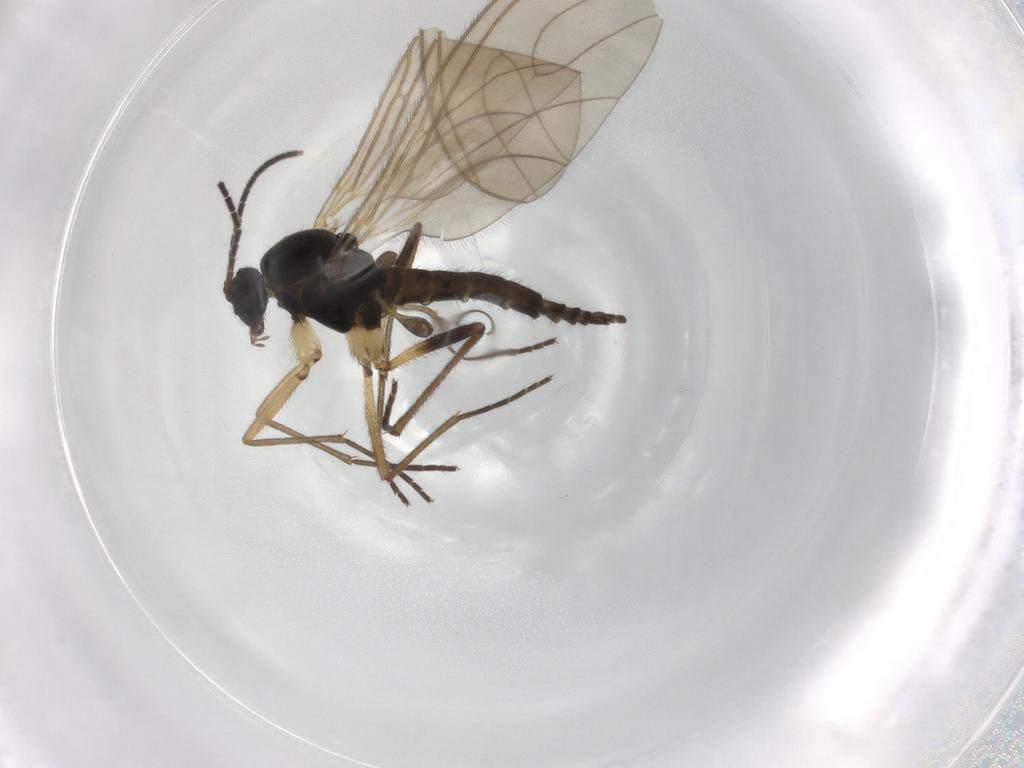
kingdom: Animalia
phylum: Arthropoda
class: Insecta
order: Diptera
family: Sciaridae
